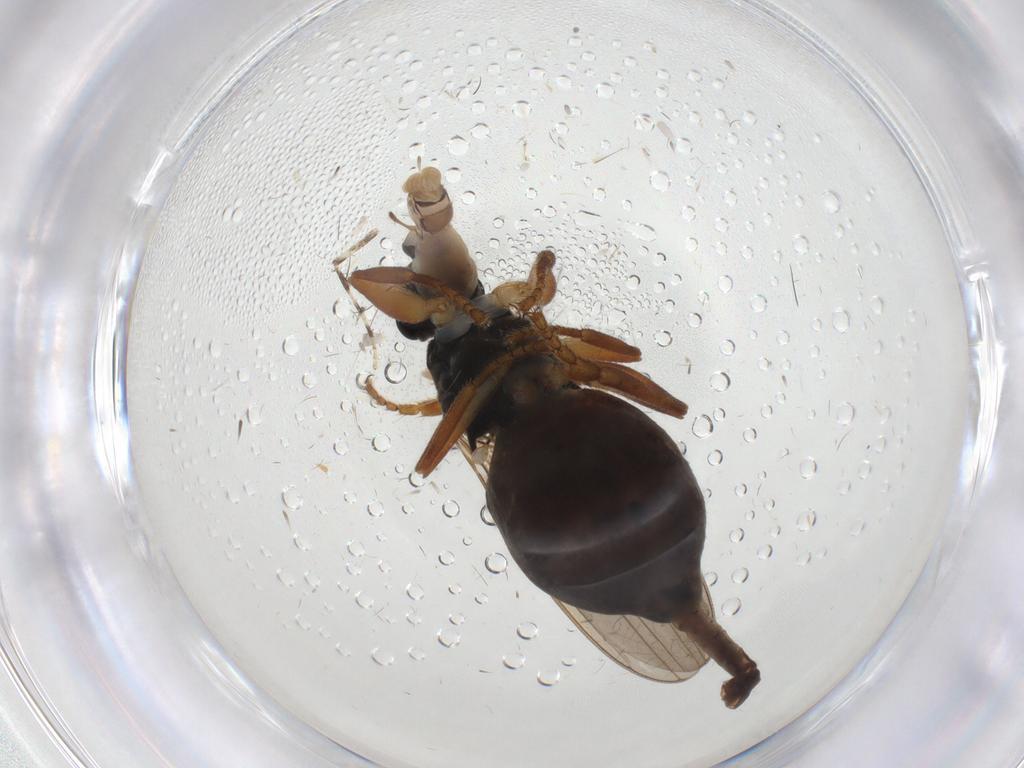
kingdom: Animalia
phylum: Arthropoda
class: Insecta
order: Diptera
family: Sphaeroceridae
